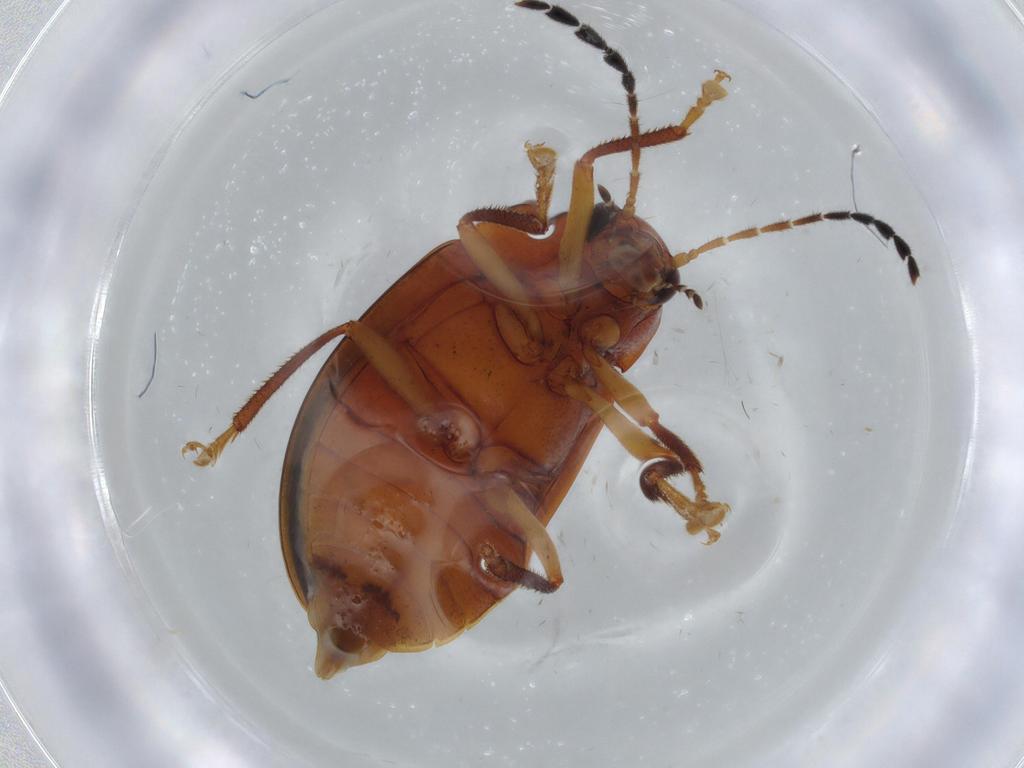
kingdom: Animalia
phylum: Arthropoda
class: Insecta
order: Coleoptera
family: Ptilodactylidae
